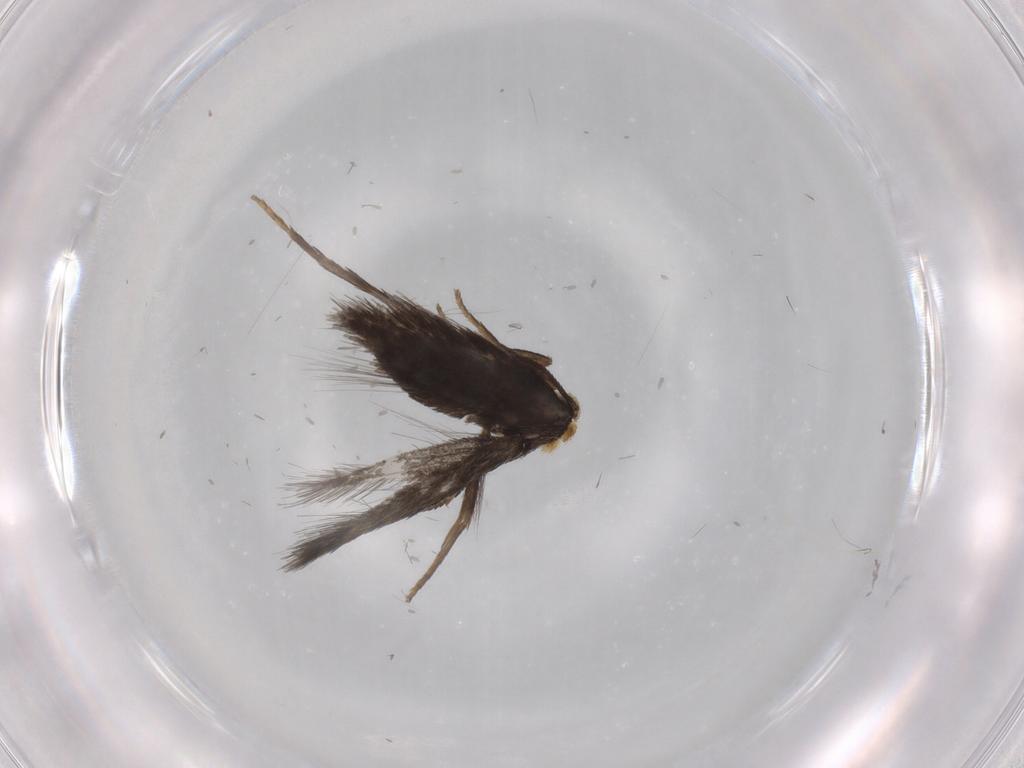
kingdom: Animalia
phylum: Arthropoda
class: Insecta
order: Lepidoptera
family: Nepticulidae
